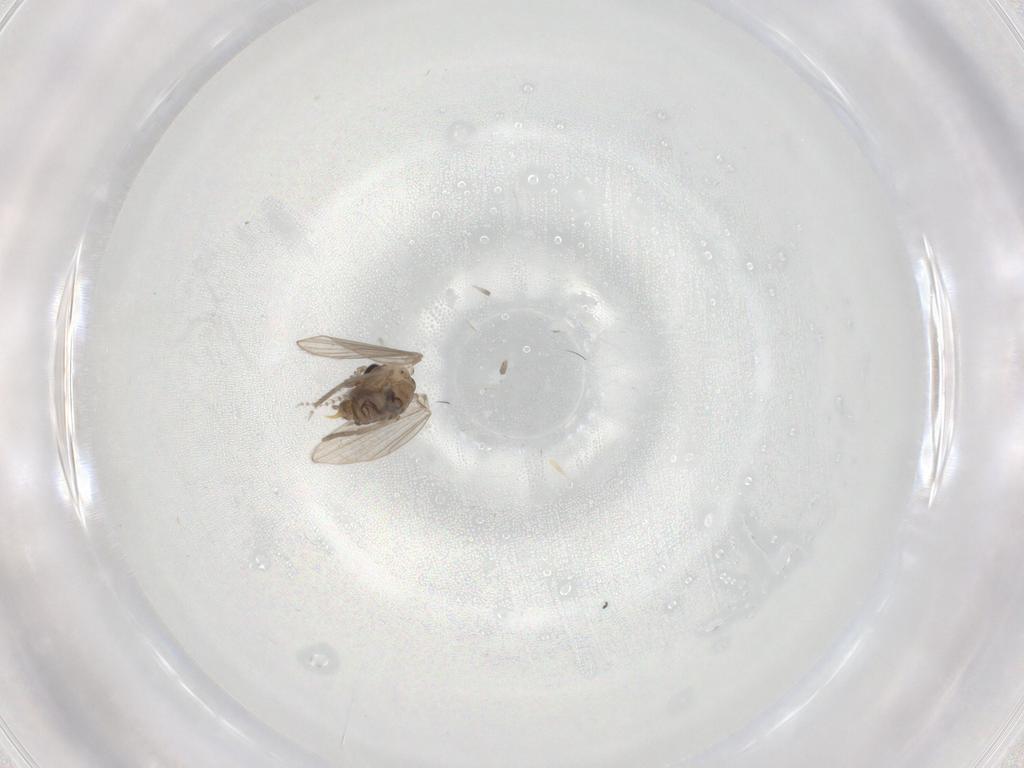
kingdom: Animalia
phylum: Arthropoda
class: Insecta
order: Diptera
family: Psychodidae
